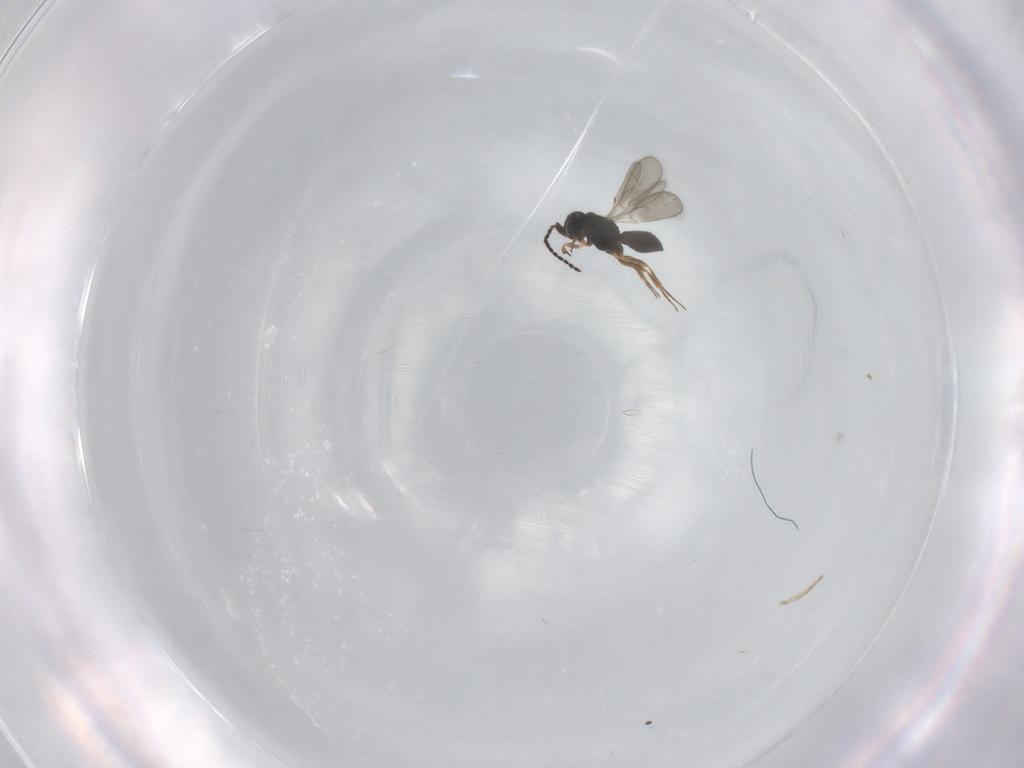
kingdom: Animalia
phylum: Arthropoda
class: Insecta
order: Hymenoptera
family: Scelionidae
